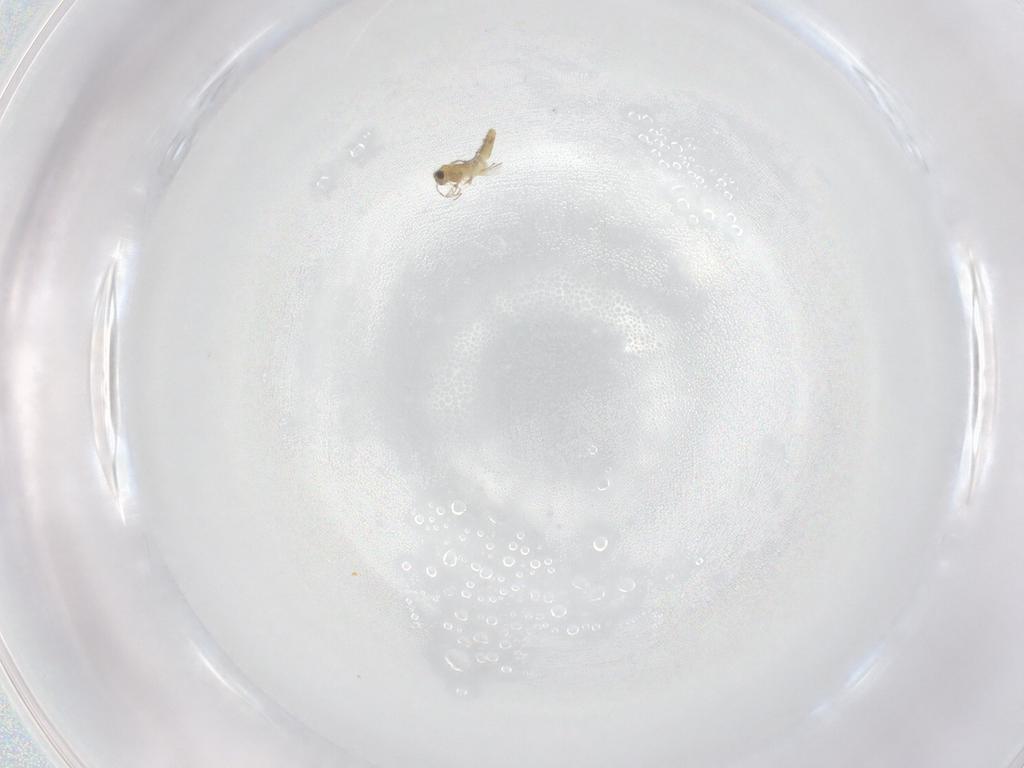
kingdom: Animalia
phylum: Arthropoda
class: Insecta
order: Diptera
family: Chironomidae
